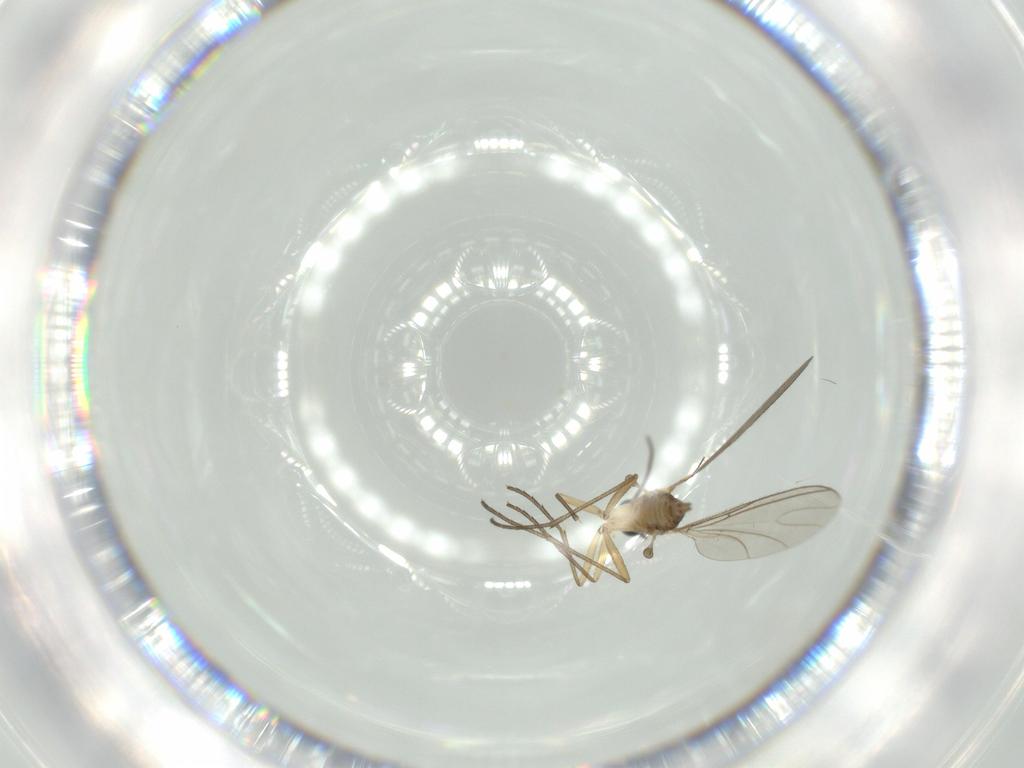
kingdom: Animalia
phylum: Arthropoda
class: Insecta
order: Diptera
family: Sciaridae
